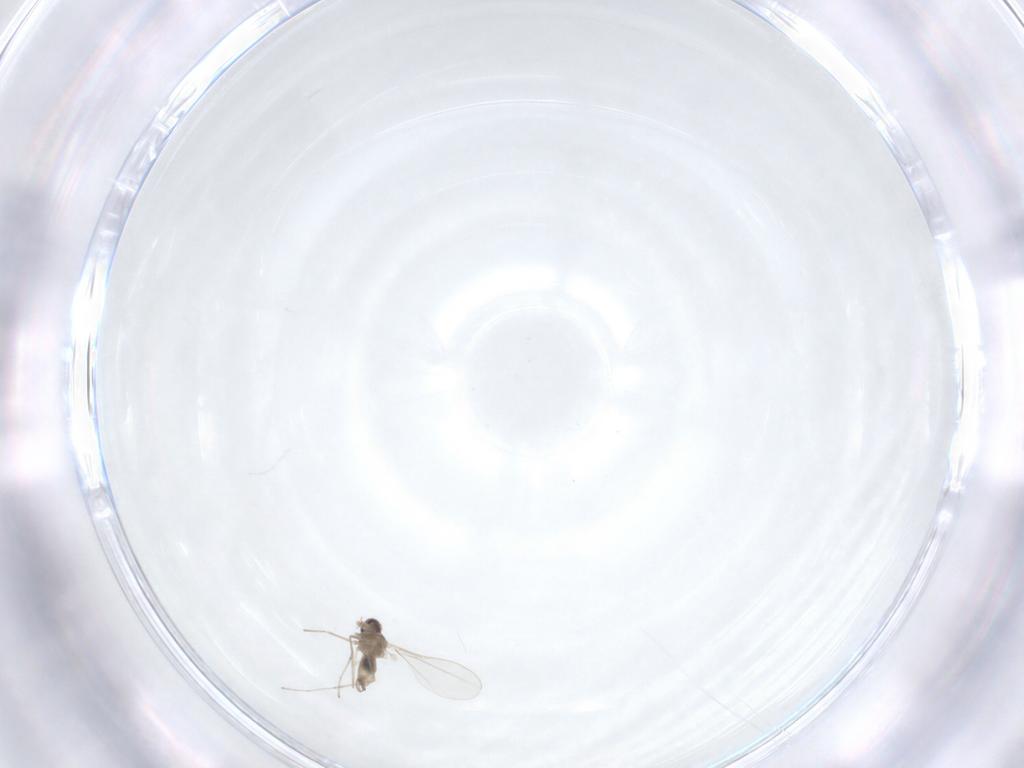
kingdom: Animalia
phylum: Arthropoda
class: Insecta
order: Diptera
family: Cecidomyiidae
